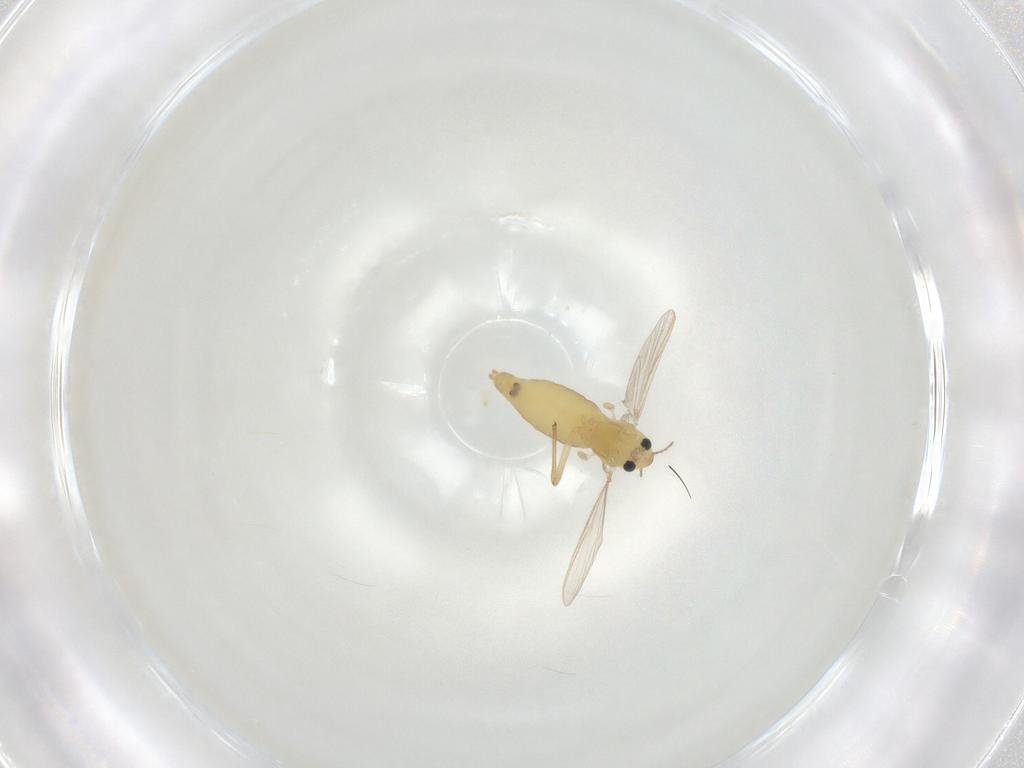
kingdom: Animalia
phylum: Arthropoda
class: Insecta
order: Diptera
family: Chironomidae
